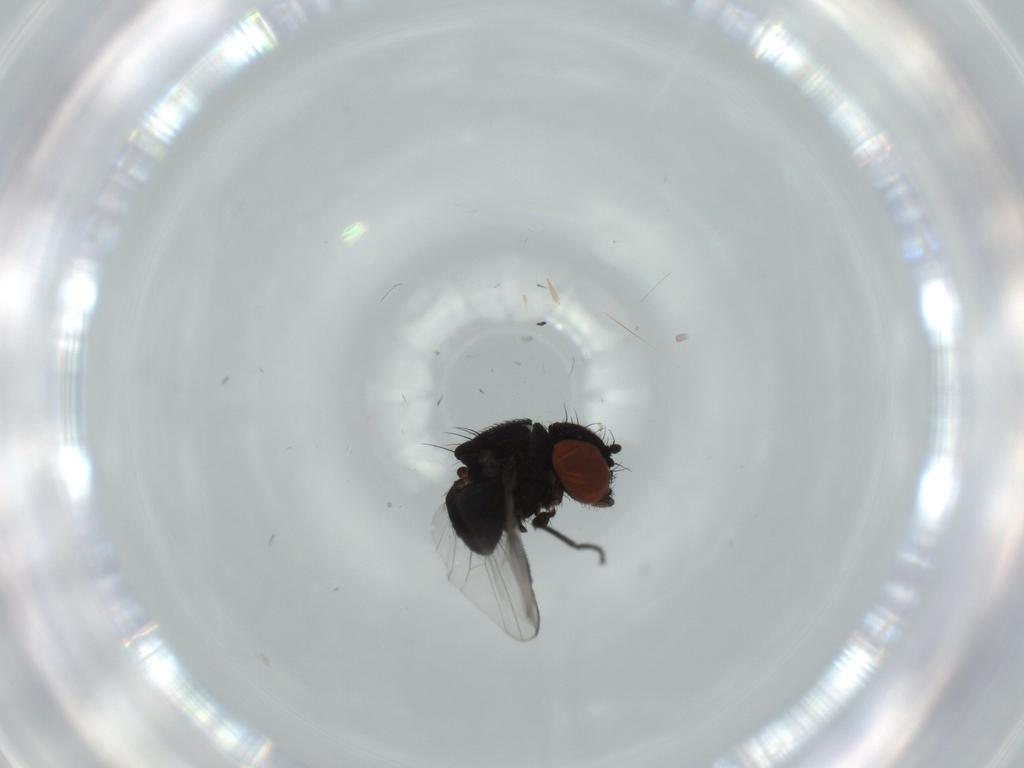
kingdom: Animalia
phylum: Arthropoda
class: Insecta
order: Diptera
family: Milichiidae
